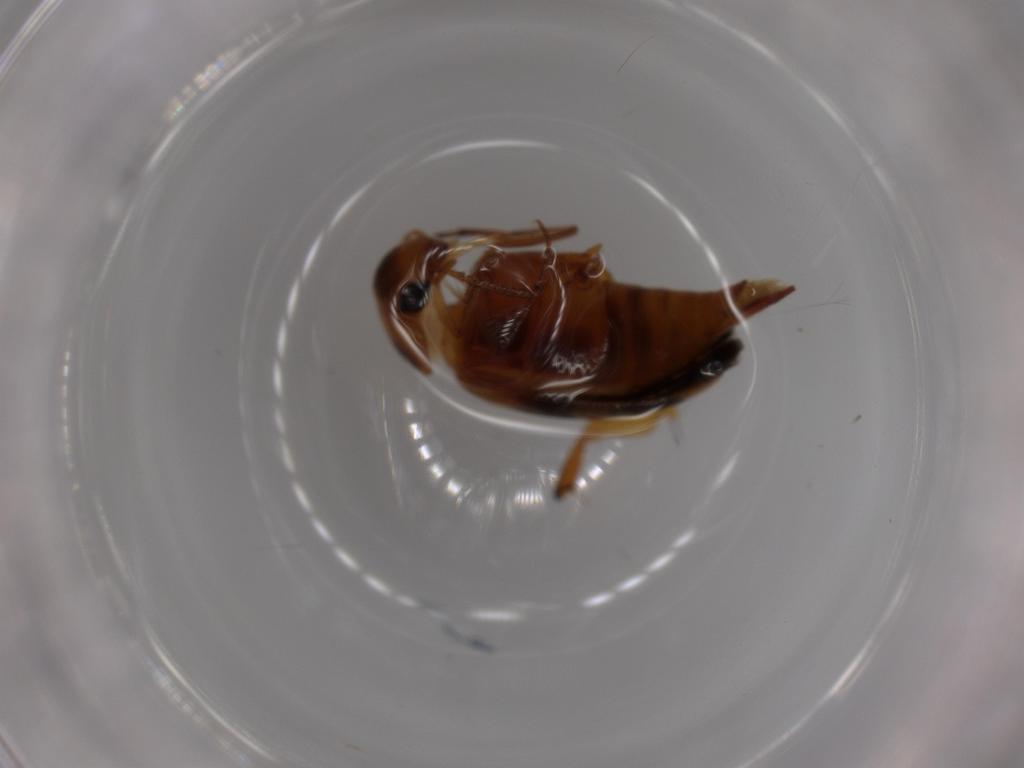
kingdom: Animalia
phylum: Arthropoda
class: Insecta
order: Coleoptera
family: Mordellidae
